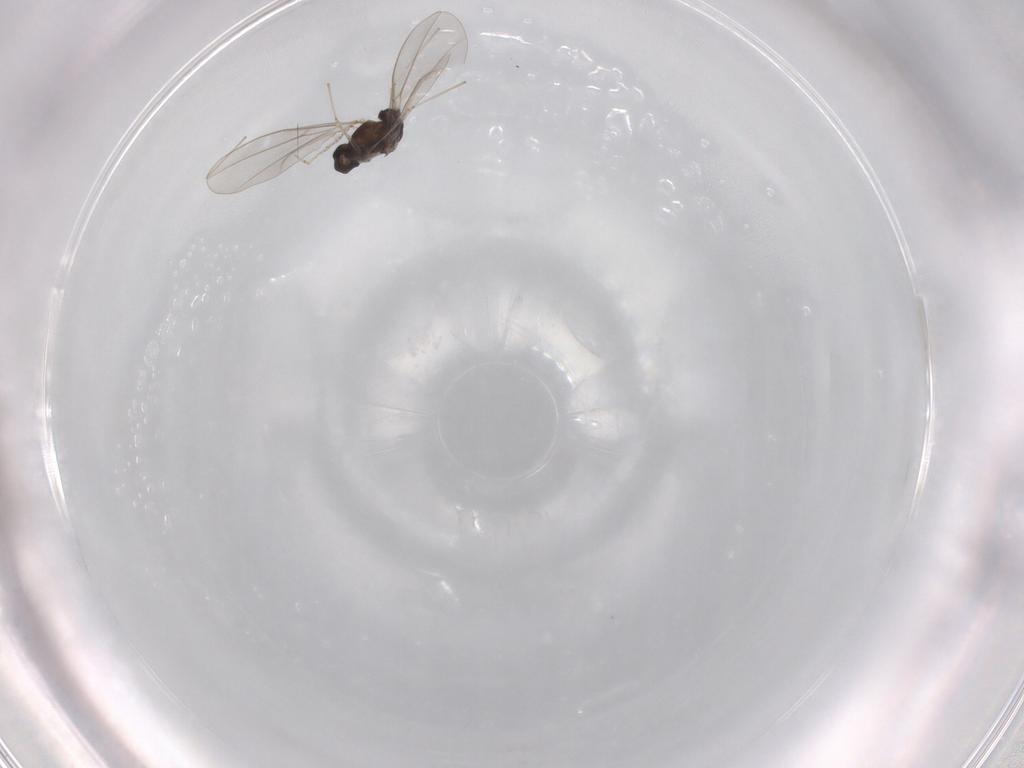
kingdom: Animalia
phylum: Arthropoda
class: Insecta
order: Diptera
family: Cecidomyiidae
